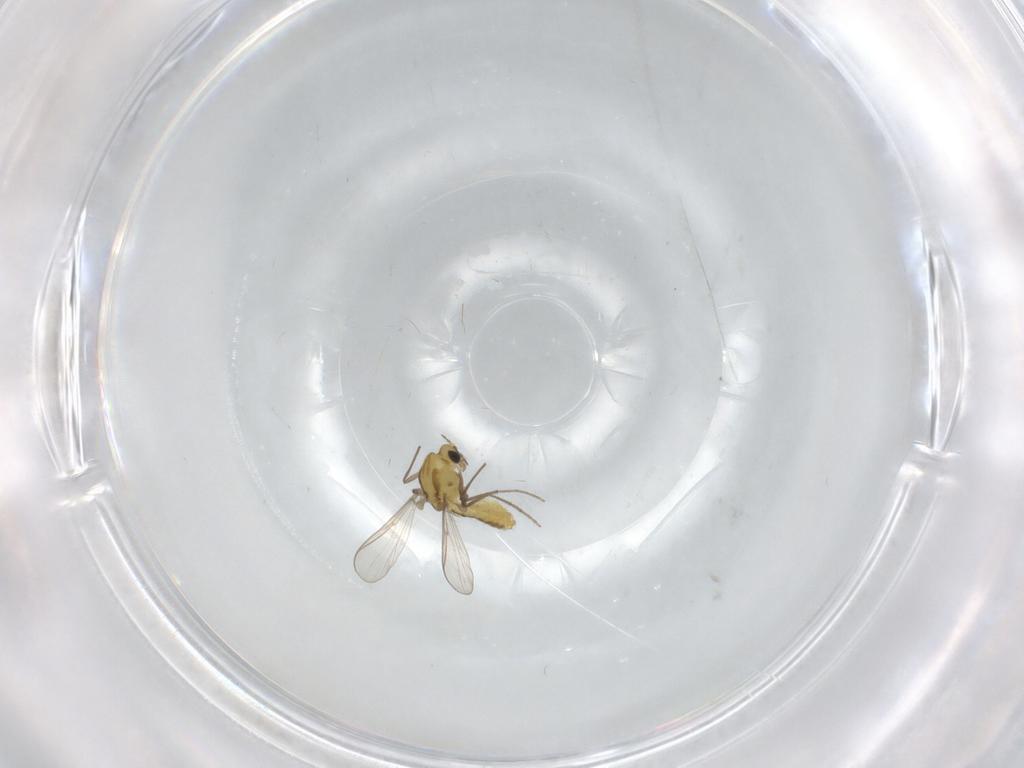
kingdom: Animalia
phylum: Arthropoda
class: Insecta
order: Diptera
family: Chironomidae
